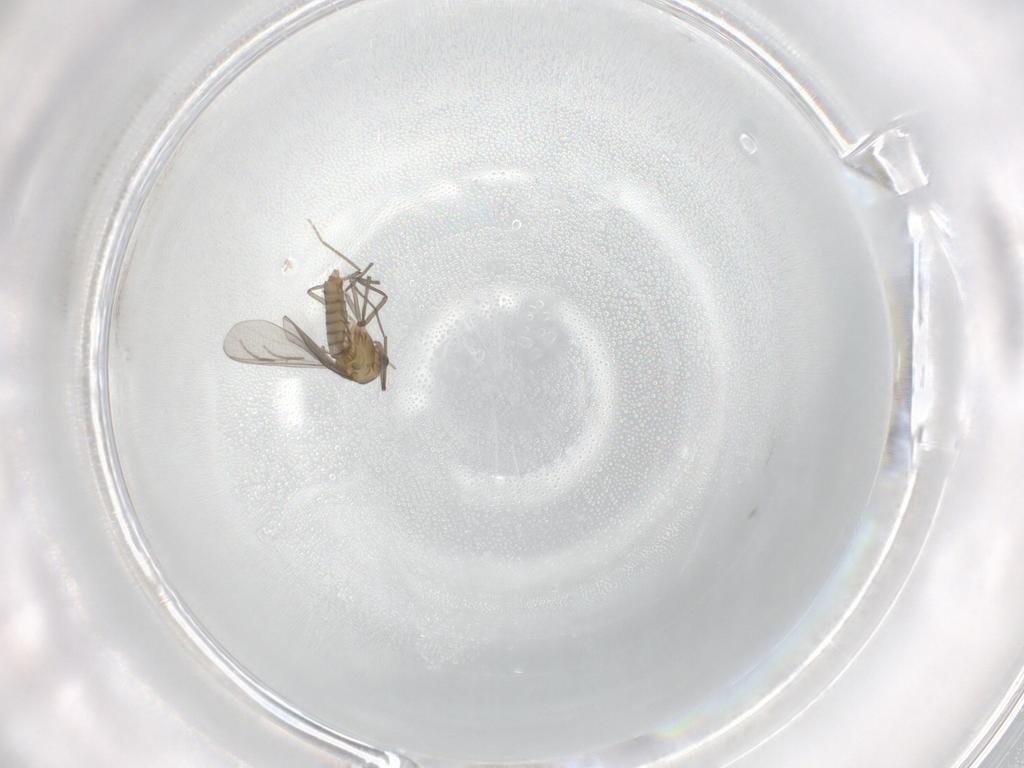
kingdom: Animalia
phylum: Arthropoda
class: Insecta
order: Diptera
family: Chironomidae
